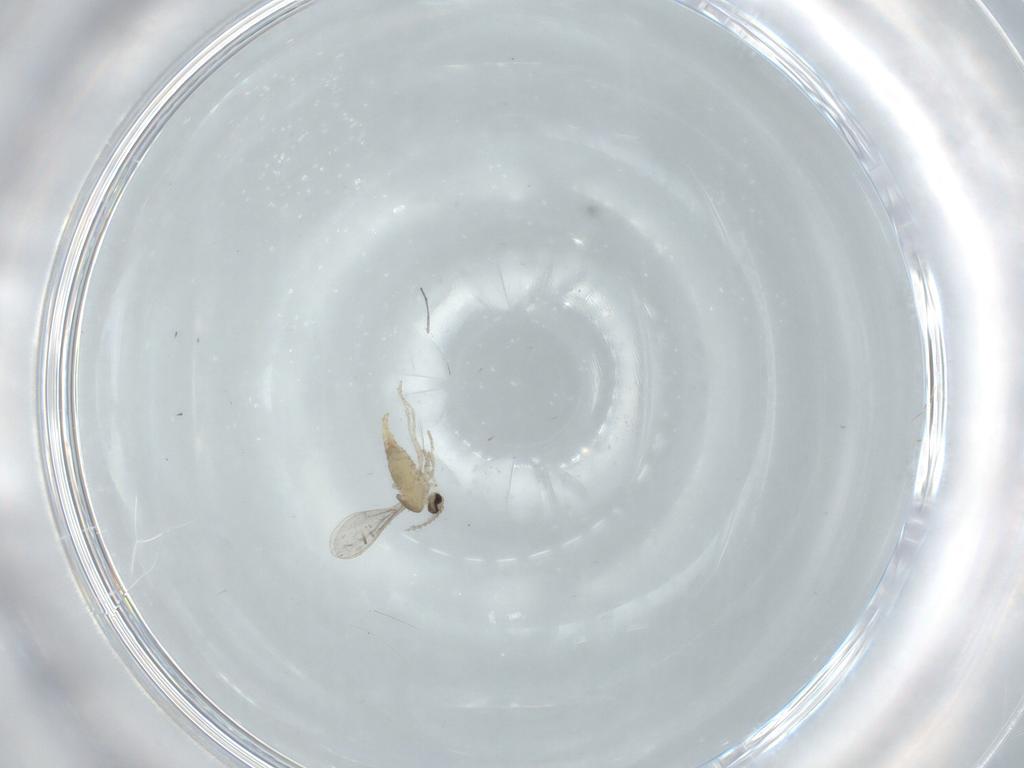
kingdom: Animalia
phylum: Arthropoda
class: Insecta
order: Diptera
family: Cecidomyiidae
